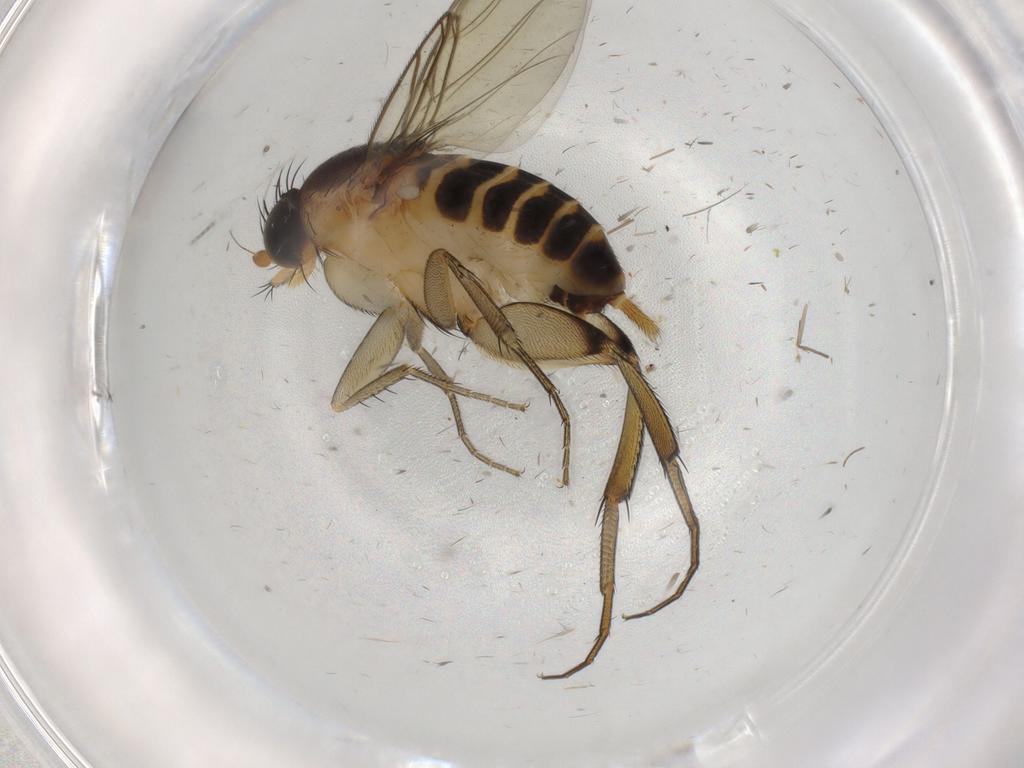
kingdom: Animalia
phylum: Arthropoda
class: Insecta
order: Diptera
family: Chironomidae
